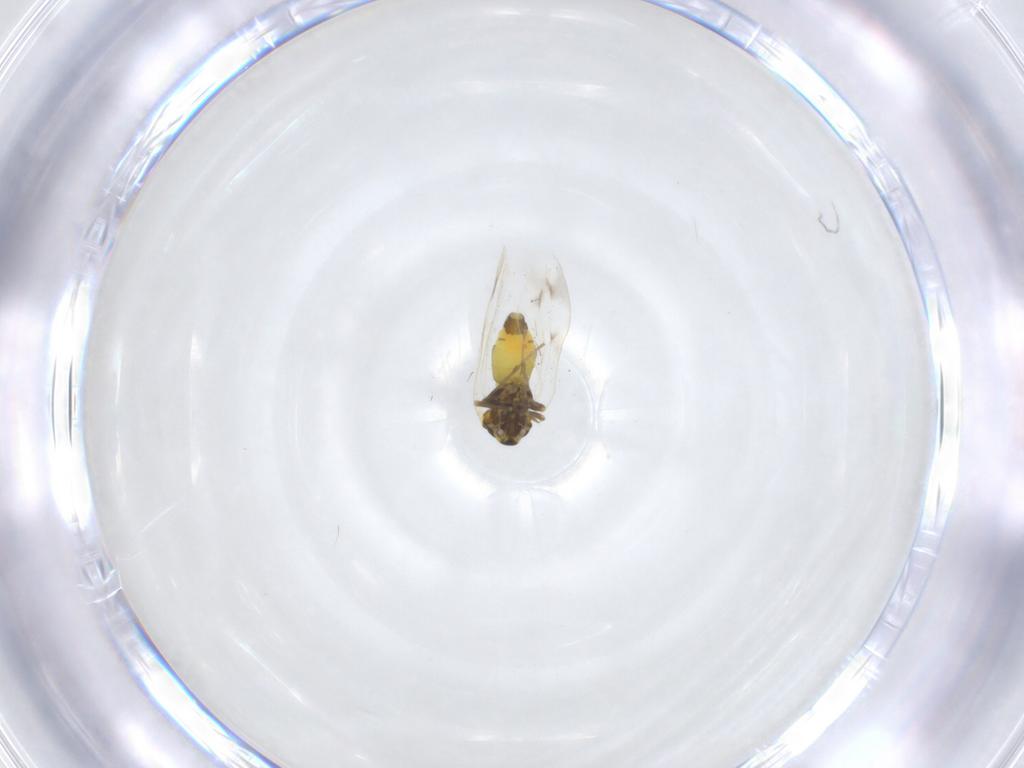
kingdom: Animalia
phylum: Arthropoda
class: Insecta
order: Hemiptera
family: Aleyrodidae
